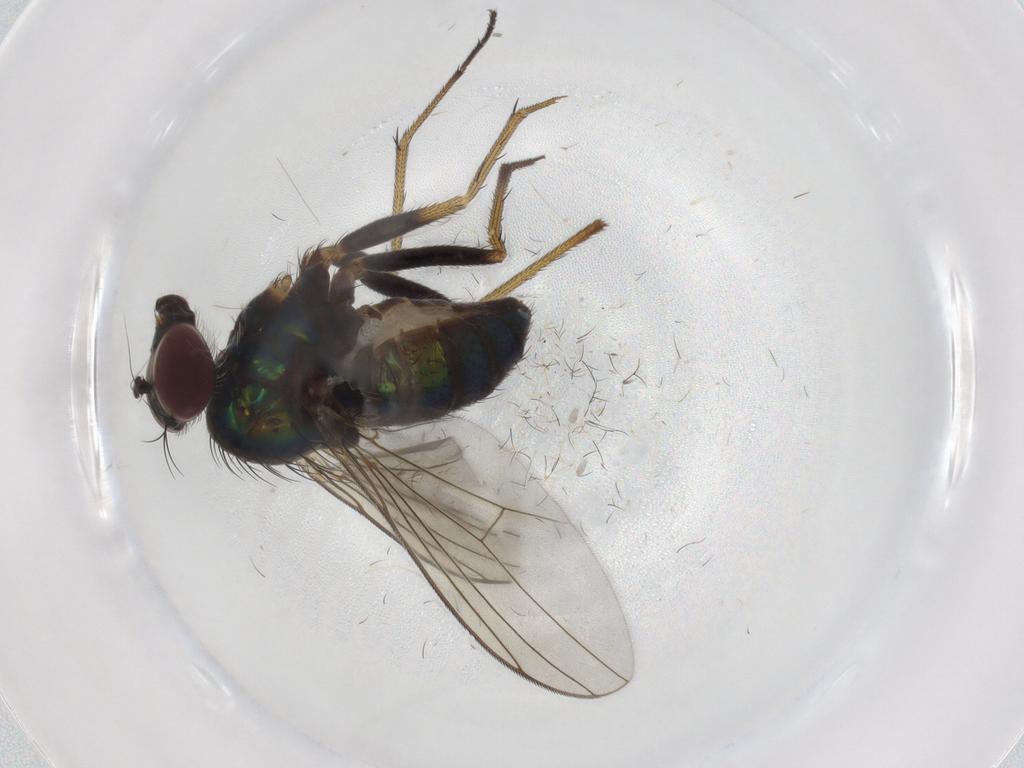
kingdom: Animalia
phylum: Arthropoda
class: Insecta
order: Diptera
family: Dolichopodidae
